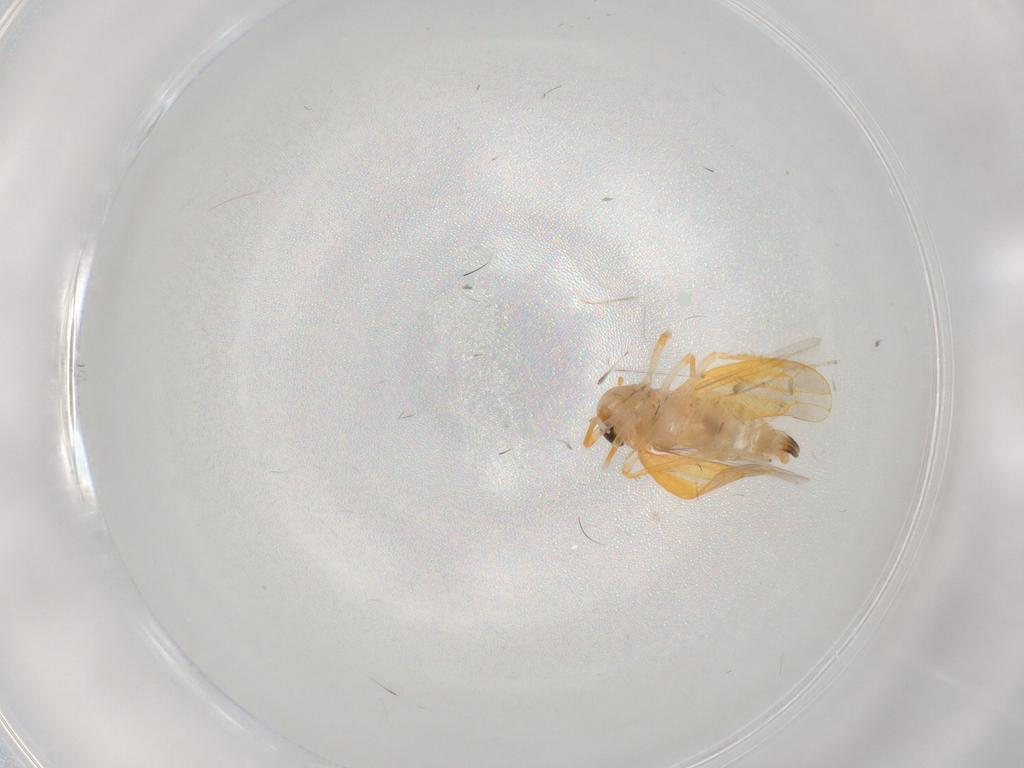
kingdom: Animalia
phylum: Arthropoda
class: Insecta
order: Hemiptera
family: Cicadellidae
